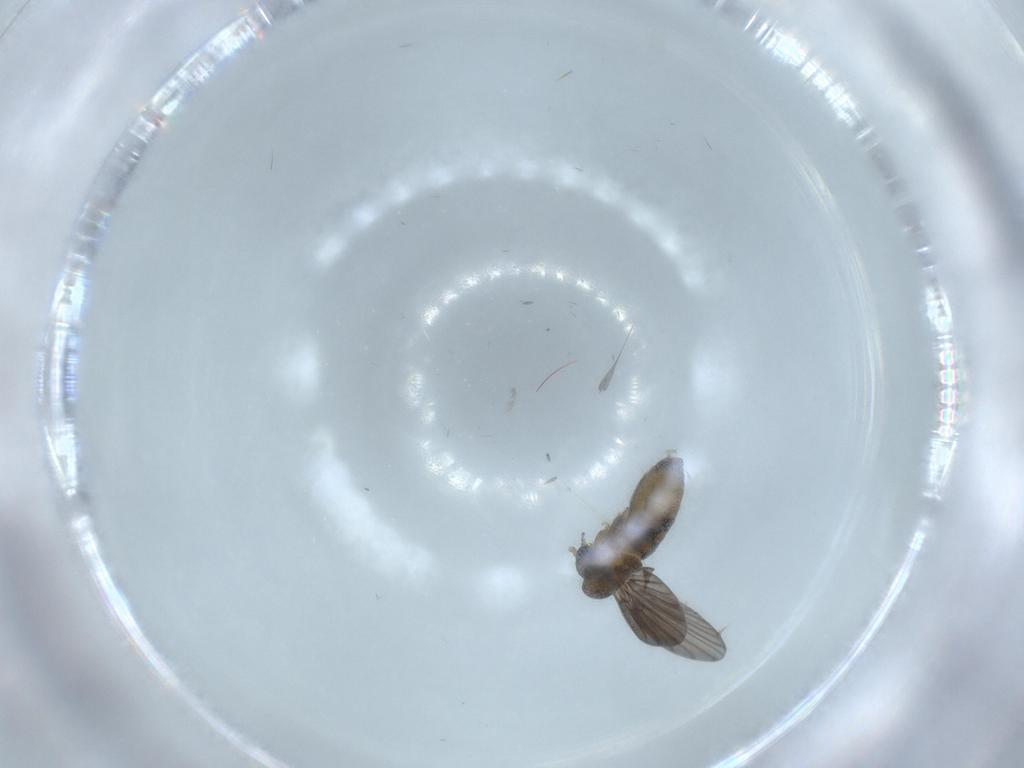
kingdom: Animalia
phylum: Arthropoda
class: Insecta
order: Diptera
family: Psychodidae
